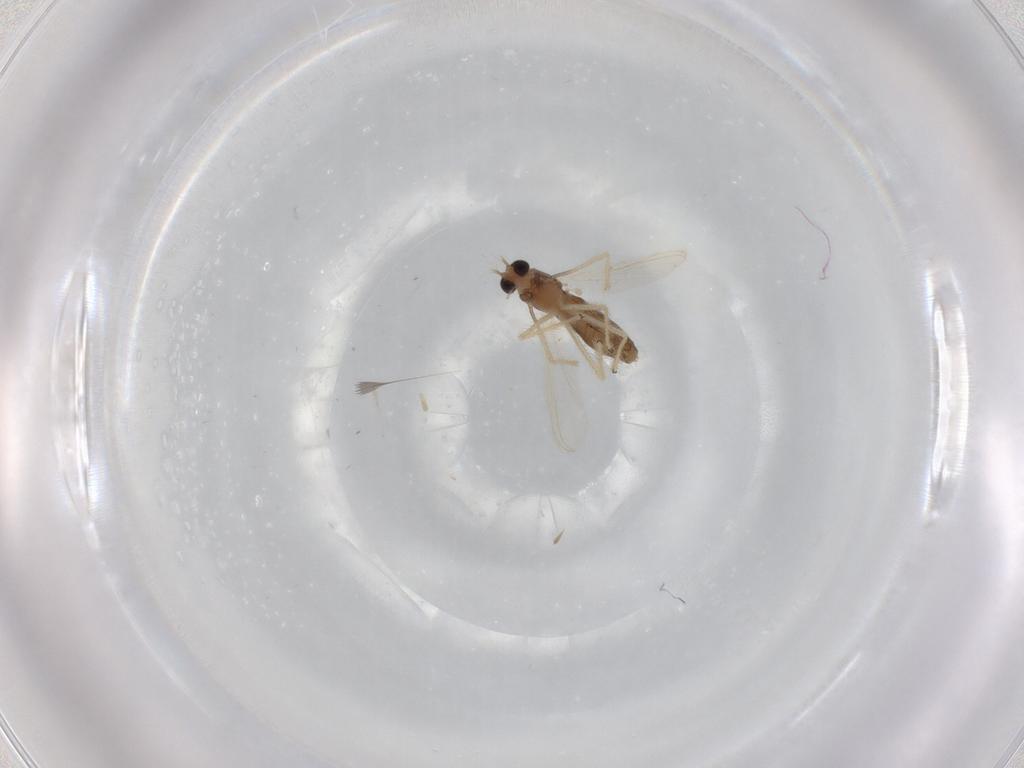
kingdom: Animalia
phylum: Arthropoda
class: Insecta
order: Diptera
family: Chironomidae
